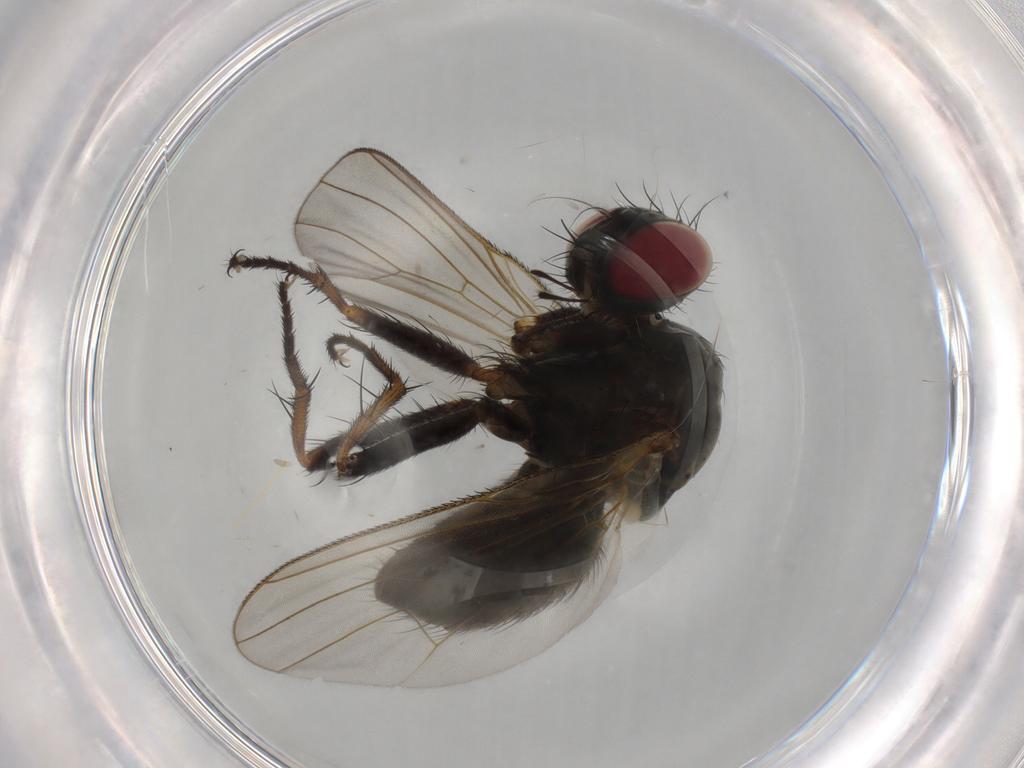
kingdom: Animalia
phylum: Arthropoda
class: Insecta
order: Diptera
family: Muscidae
